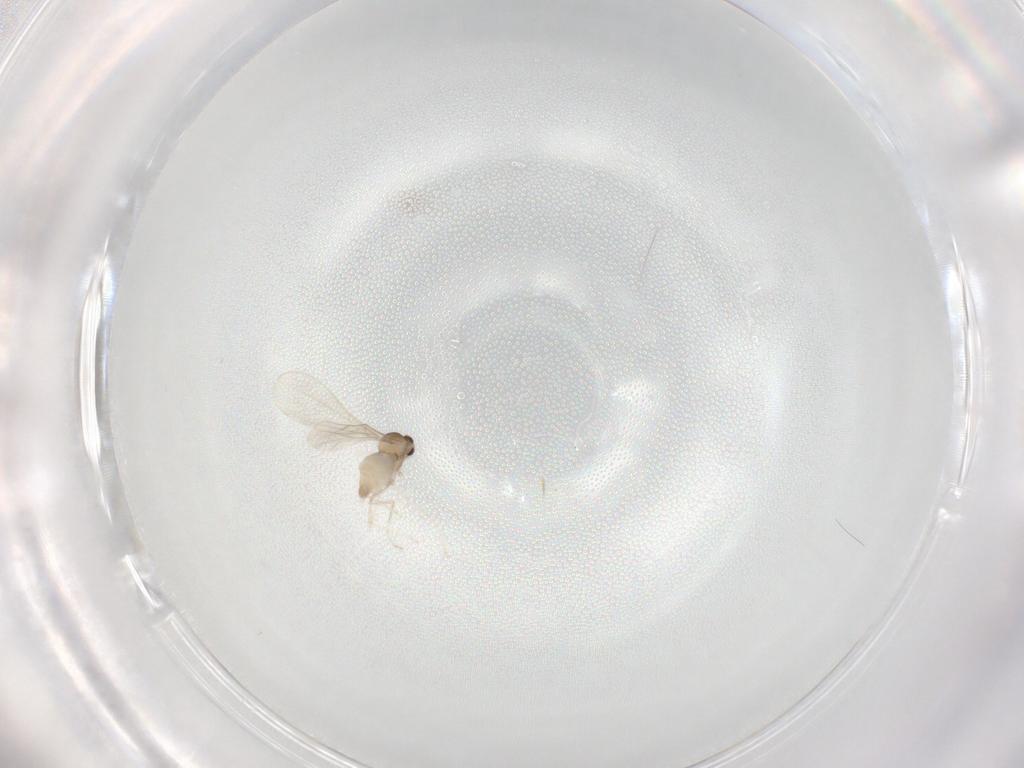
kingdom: Animalia
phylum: Arthropoda
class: Insecta
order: Diptera
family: Cecidomyiidae
